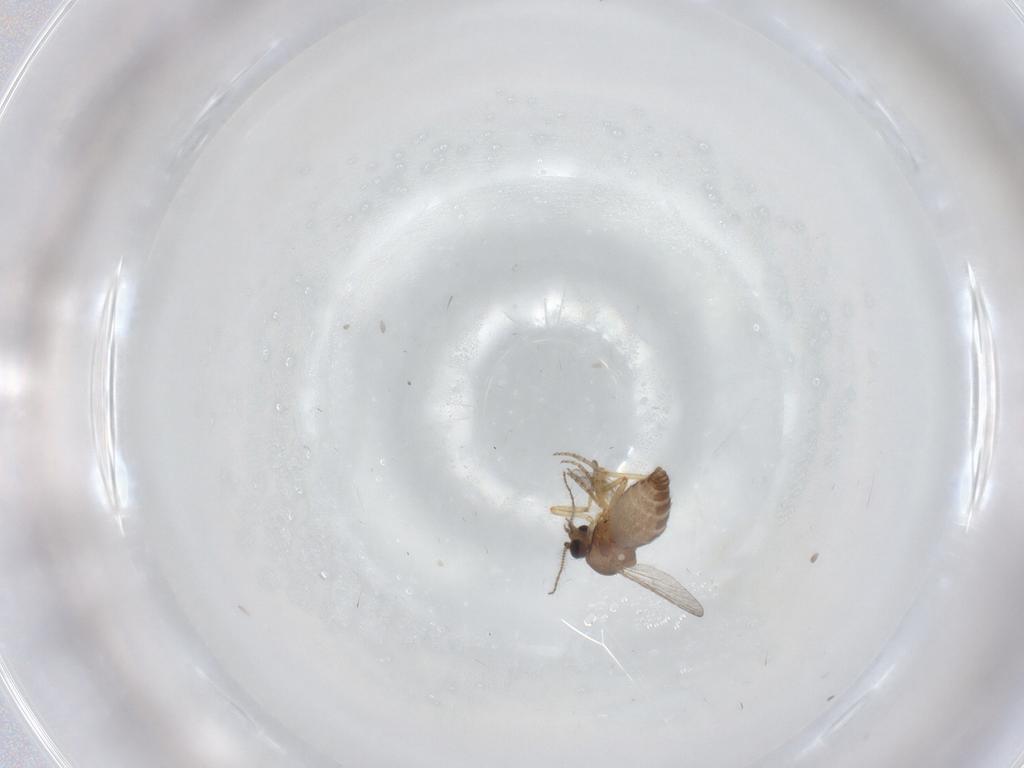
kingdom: Animalia
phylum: Arthropoda
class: Insecta
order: Diptera
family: Ceratopogonidae
